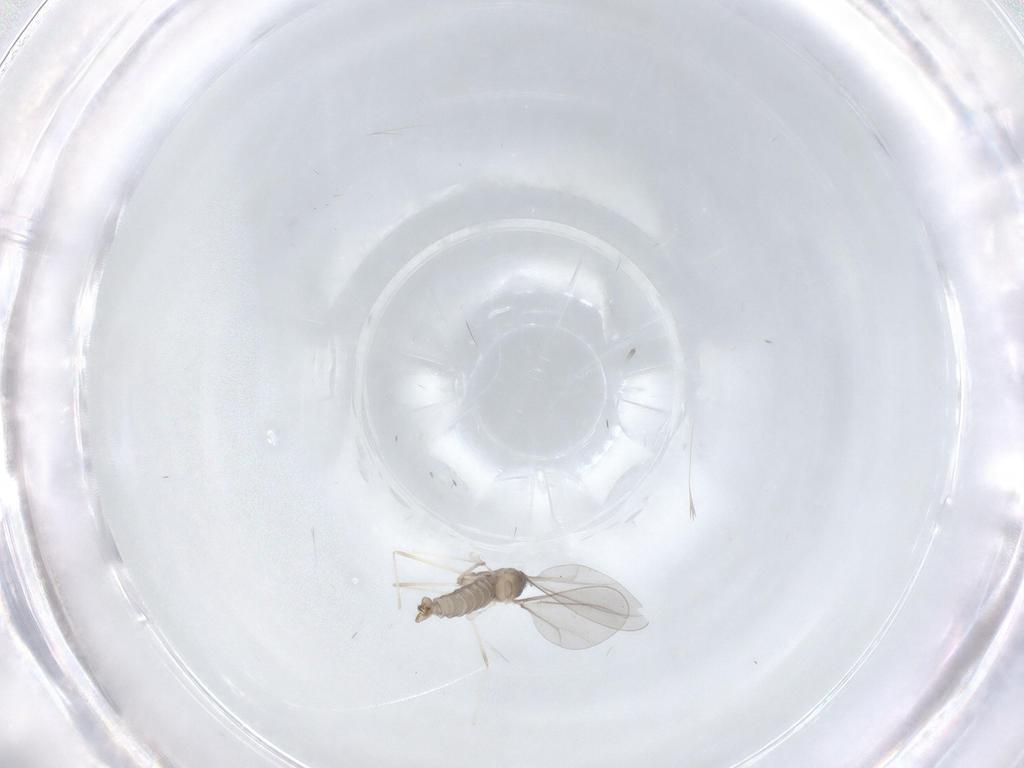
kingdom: Animalia
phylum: Arthropoda
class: Insecta
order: Diptera
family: Cecidomyiidae
